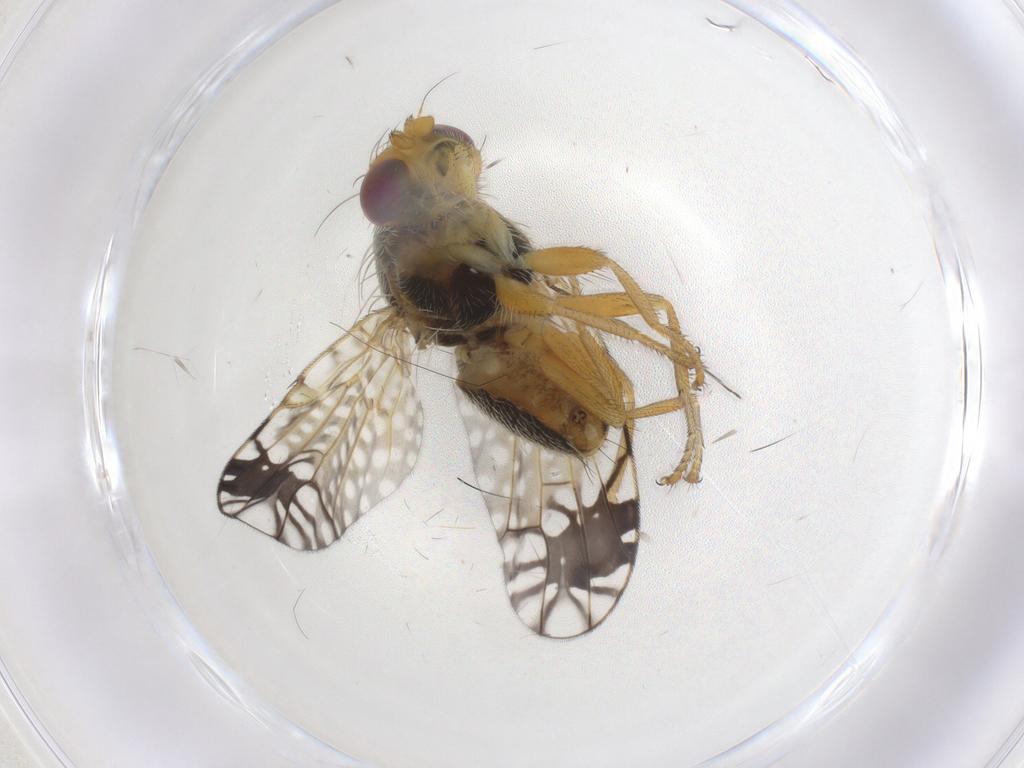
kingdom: Animalia
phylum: Arthropoda
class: Insecta
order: Diptera
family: Tephritidae
